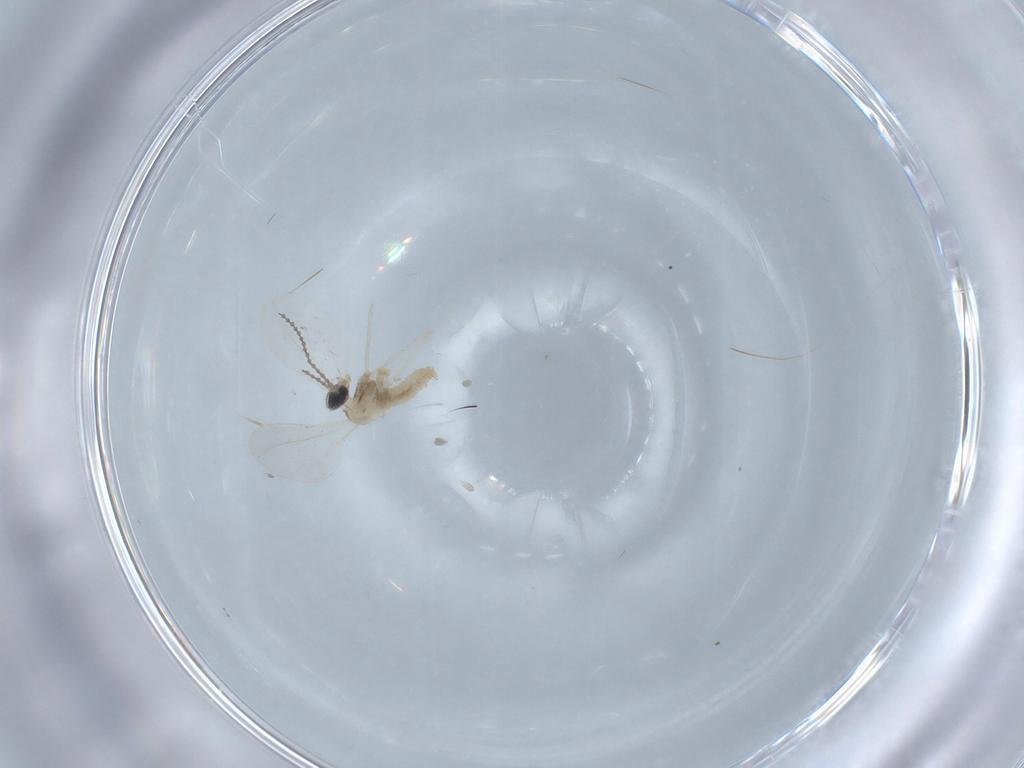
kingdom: Animalia
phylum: Arthropoda
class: Insecta
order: Diptera
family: Cecidomyiidae
